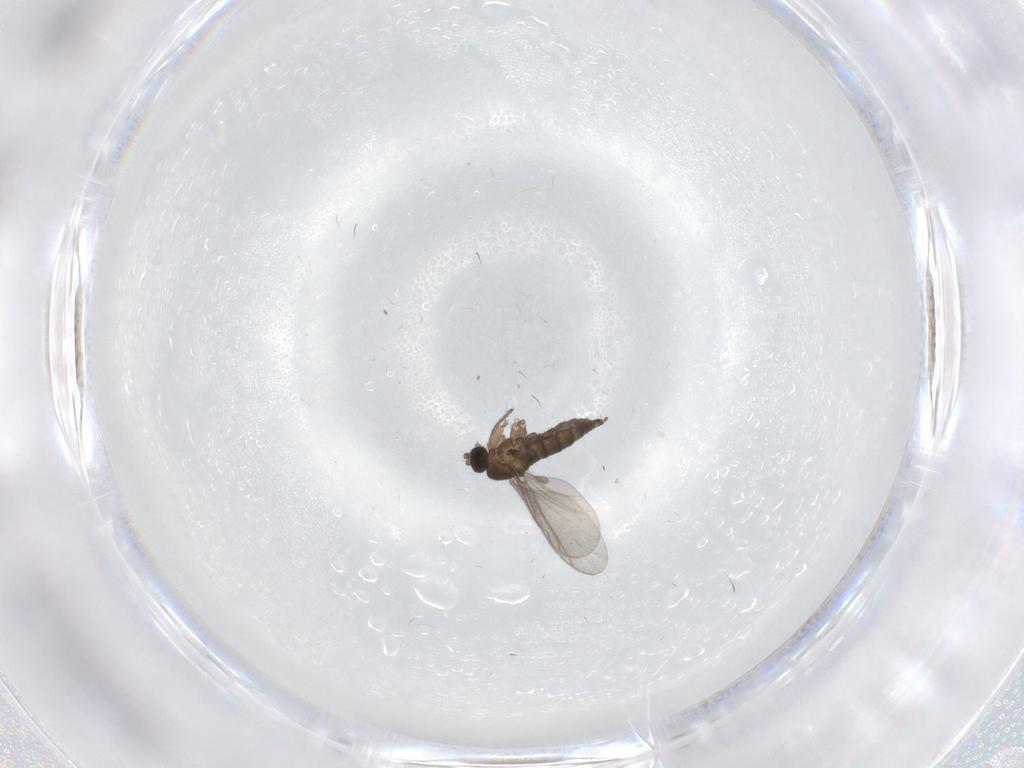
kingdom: Animalia
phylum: Arthropoda
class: Insecta
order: Diptera
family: Sciaridae
